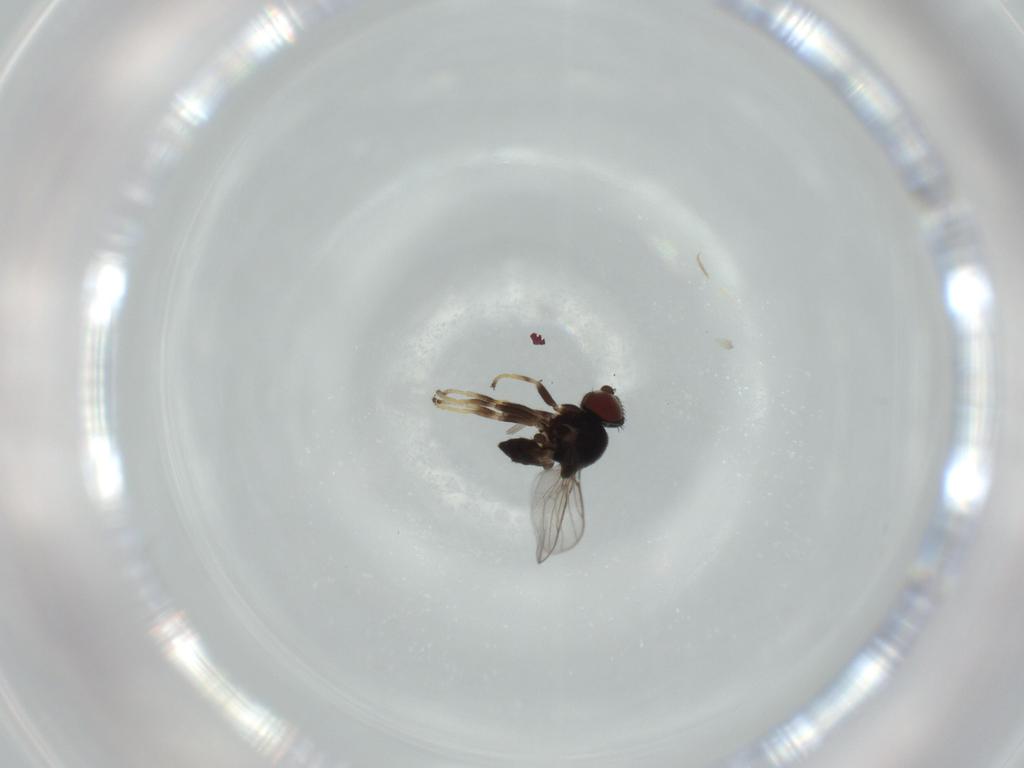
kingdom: Animalia
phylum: Arthropoda
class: Insecta
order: Diptera
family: Chloropidae
